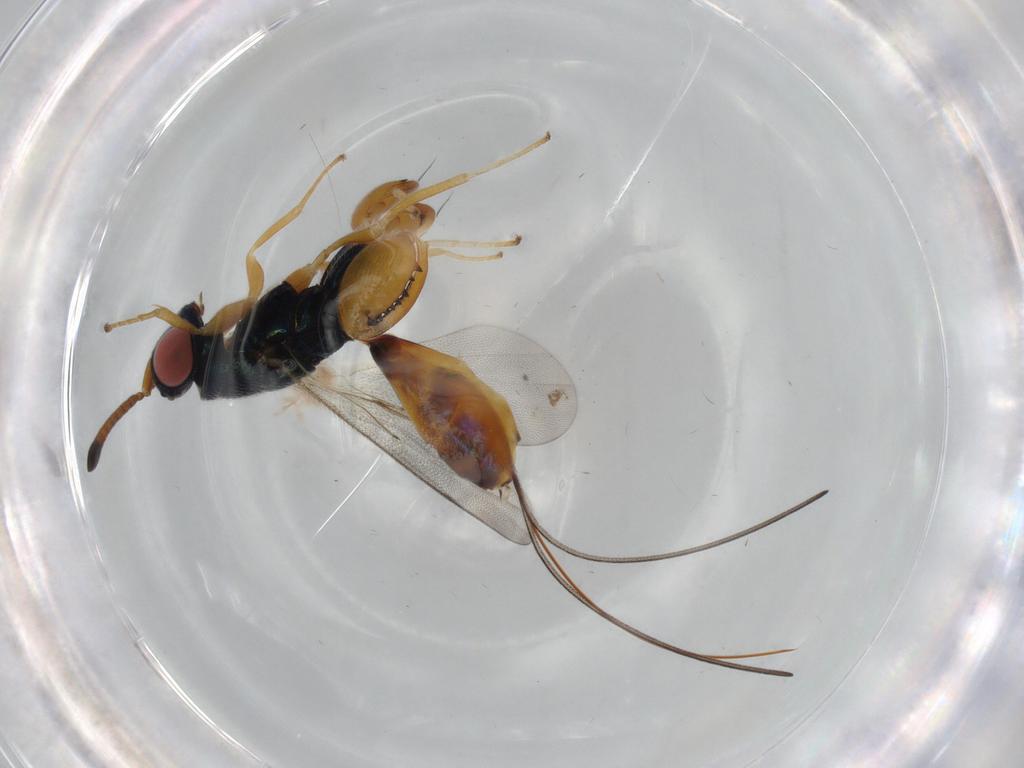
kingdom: Animalia
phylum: Arthropoda
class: Insecta
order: Hymenoptera
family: Torymidae
